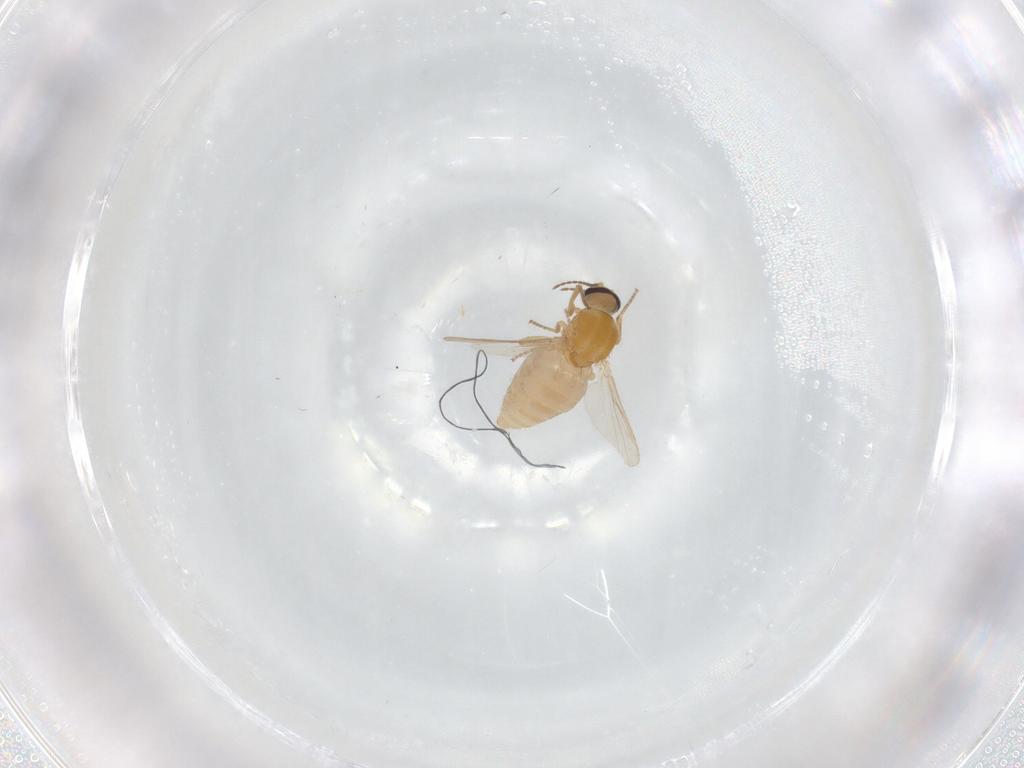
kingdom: Animalia
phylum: Arthropoda
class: Insecta
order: Diptera
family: Ceratopogonidae
